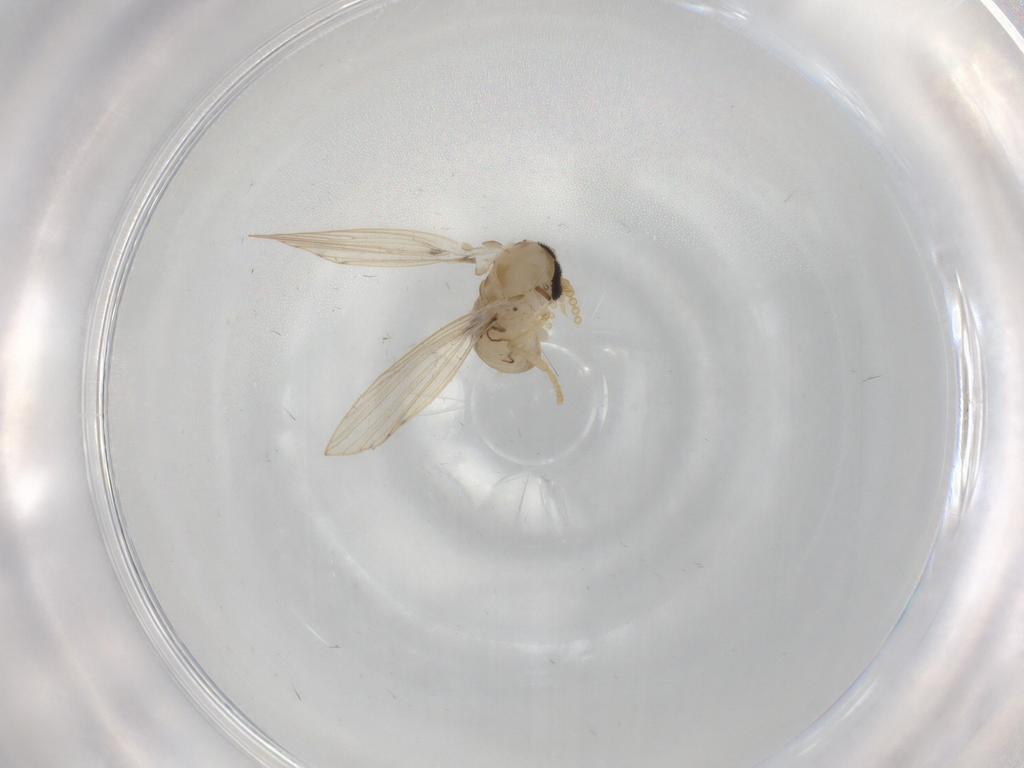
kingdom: Animalia
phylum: Arthropoda
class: Insecta
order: Diptera
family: Psychodidae
